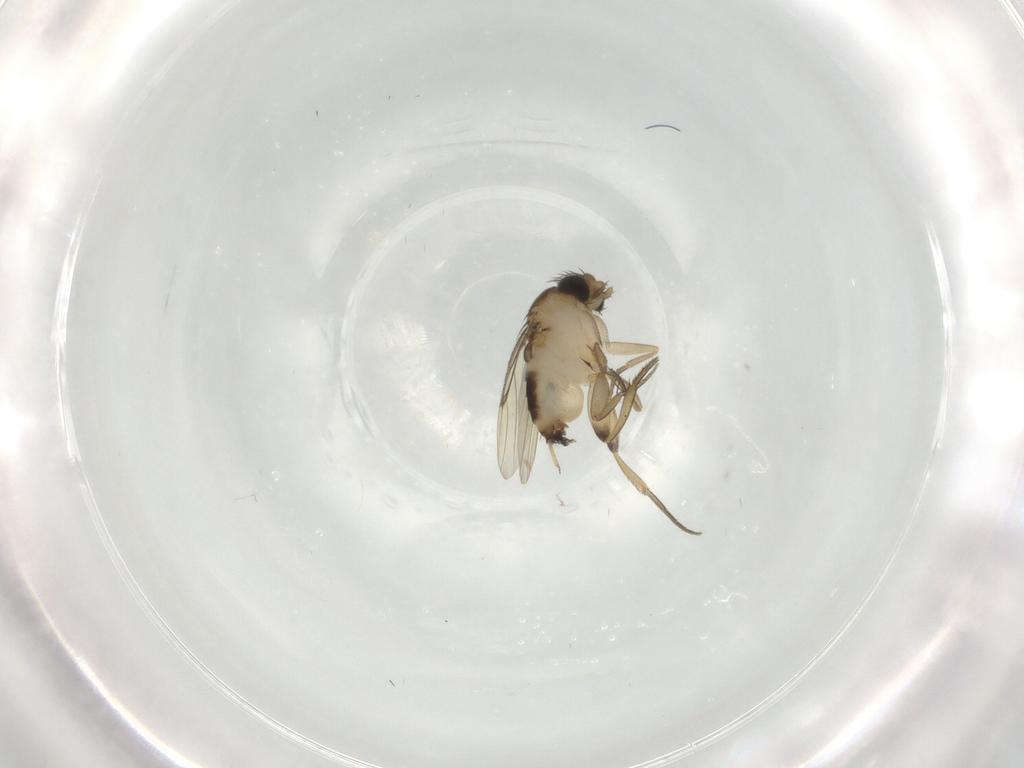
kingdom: Animalia
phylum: Arthropoda
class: Insecta
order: Diptera
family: Phoridae
